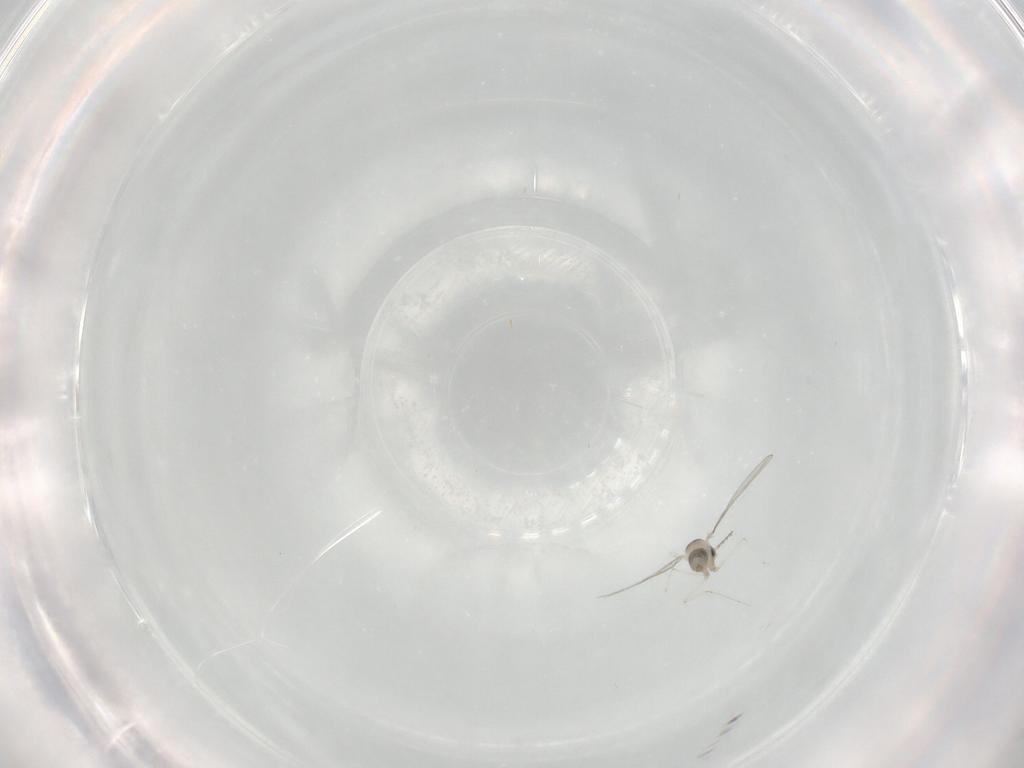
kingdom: Animalia
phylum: Arthropoda
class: Insecta
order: Diptera
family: Cecidomyiidae
